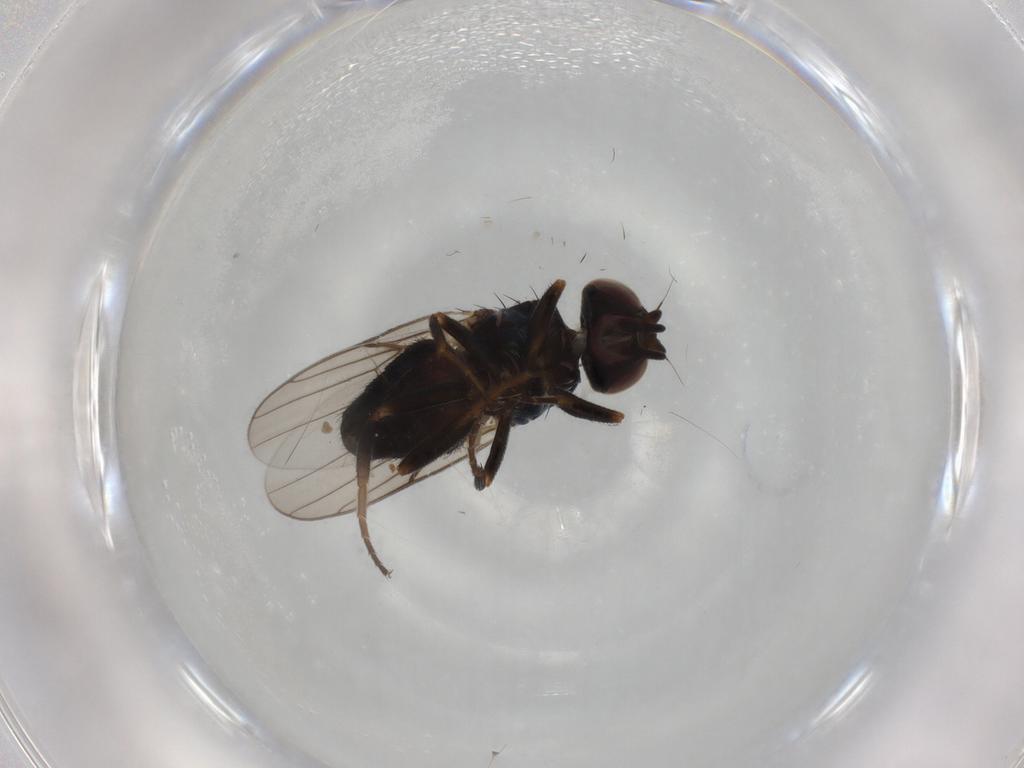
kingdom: Animalia
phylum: Arthropoda
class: Insecta
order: Diptera
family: Chloropidae
